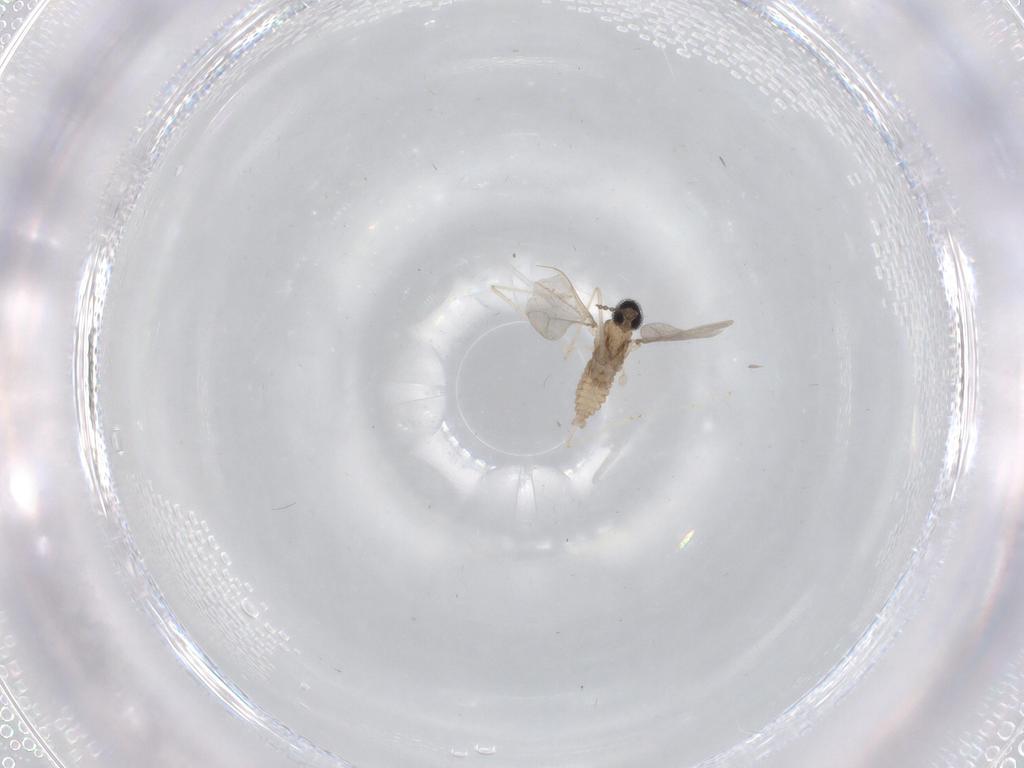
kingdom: Animalia
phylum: Arthropoda
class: Insecta
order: Diptera
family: Cecidomyiidae
